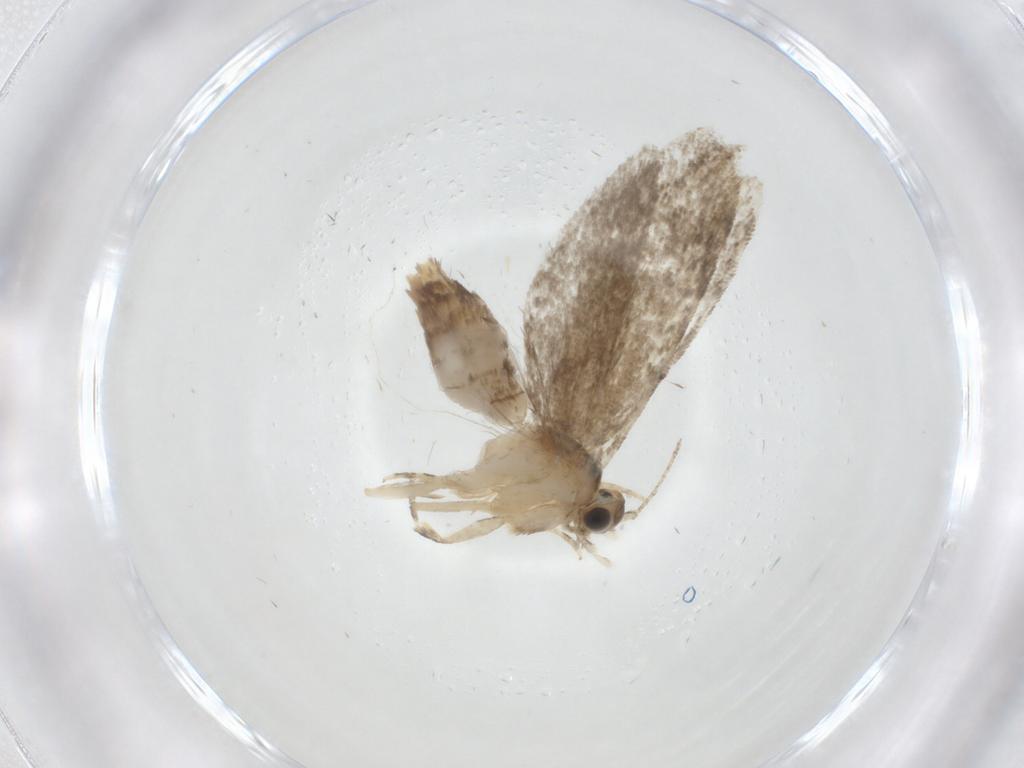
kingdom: Animalia
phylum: Arthropoda
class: Insecta
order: Lepidoptera
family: Tineidae
